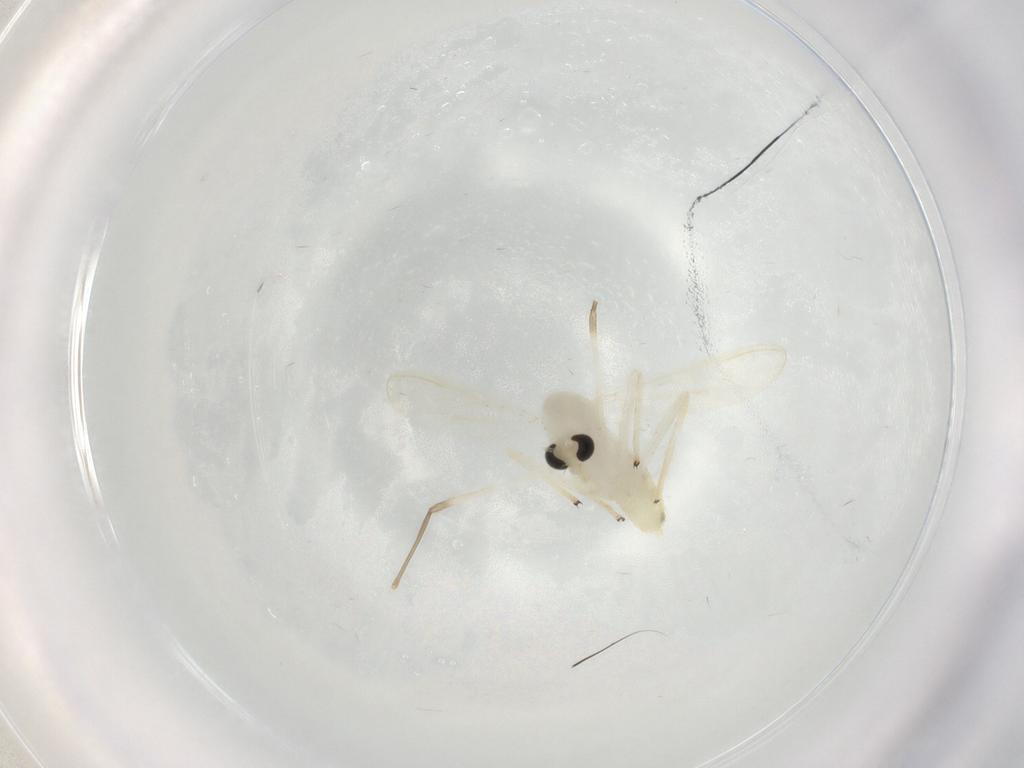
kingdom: Animalia
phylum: Arthropoda
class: Insecta
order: Diptera
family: Chironomidae
